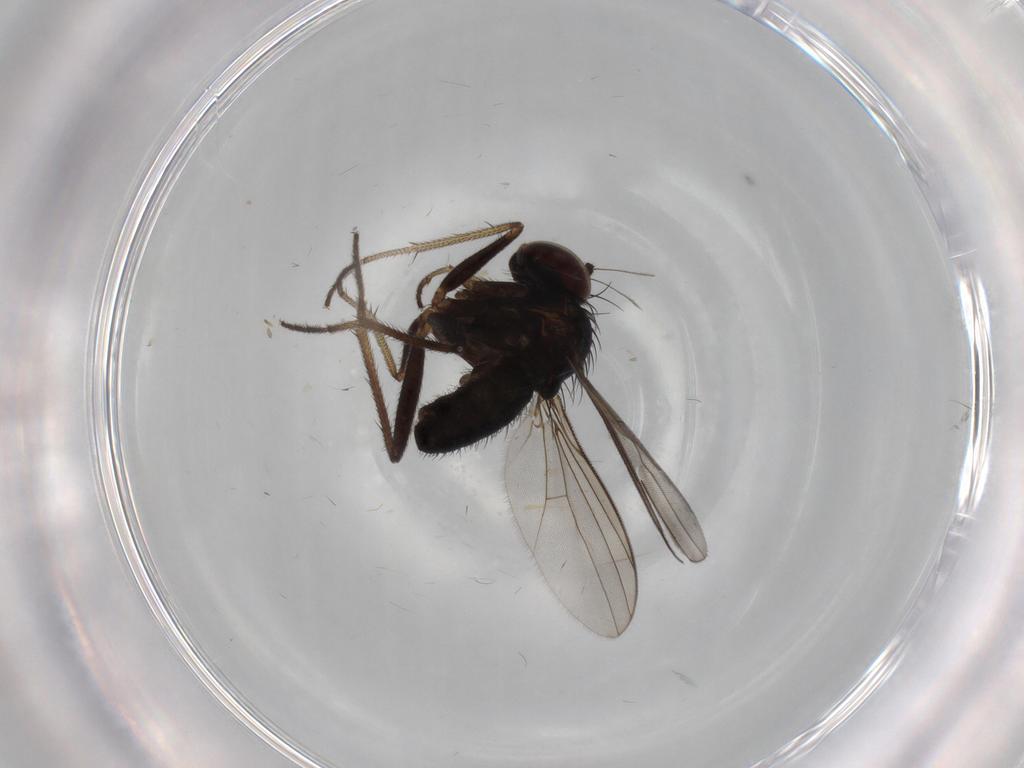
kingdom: Animalia
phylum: Arthropoda
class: Insecta
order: Diptera
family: Dolichopodidae
